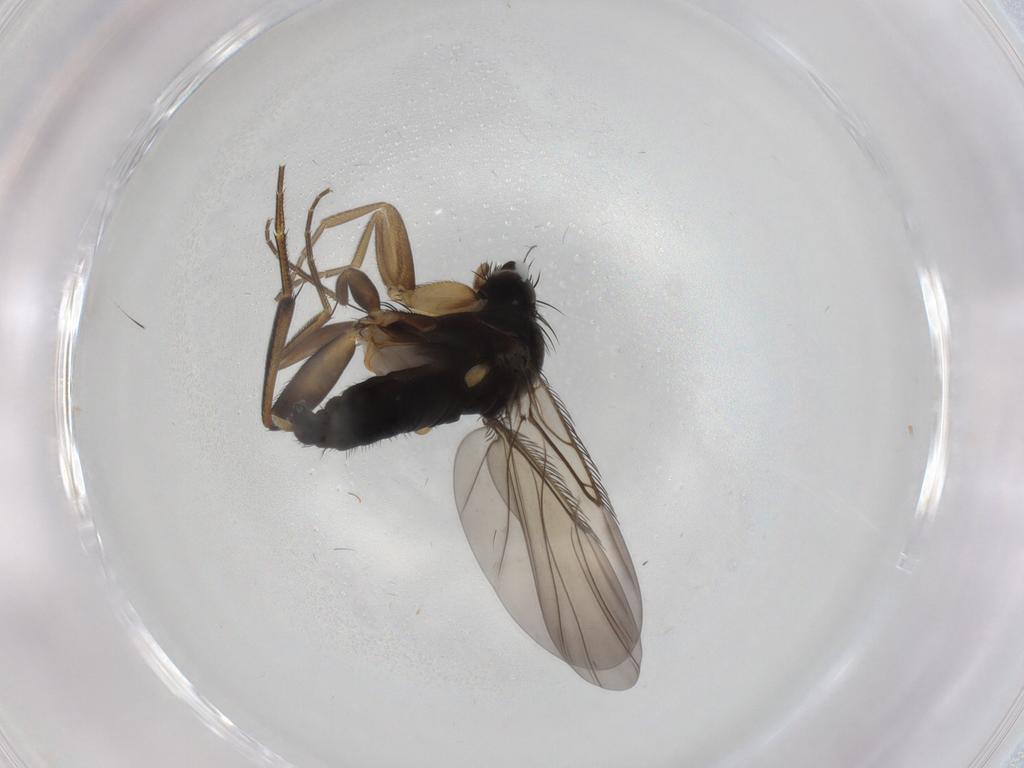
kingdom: Animalia
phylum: Arthropoda
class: Insecta
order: Diptera
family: Phoridae
